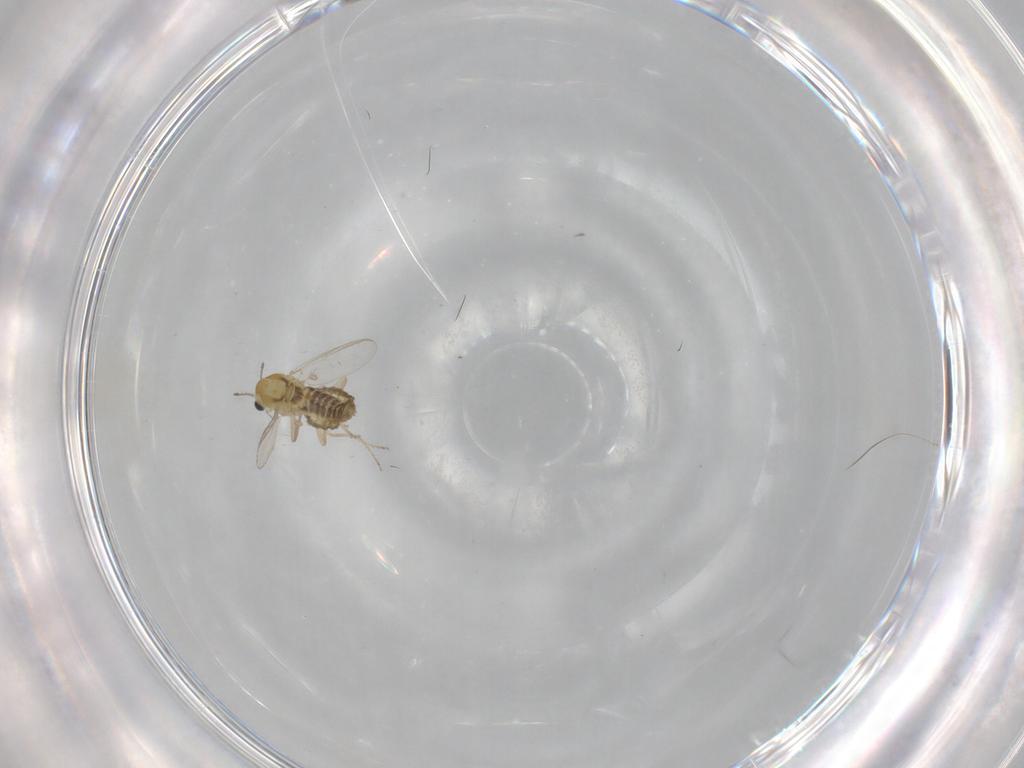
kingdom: Animalia
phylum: Arthropoda
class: Insecta
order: Diptera
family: Chironomidae
